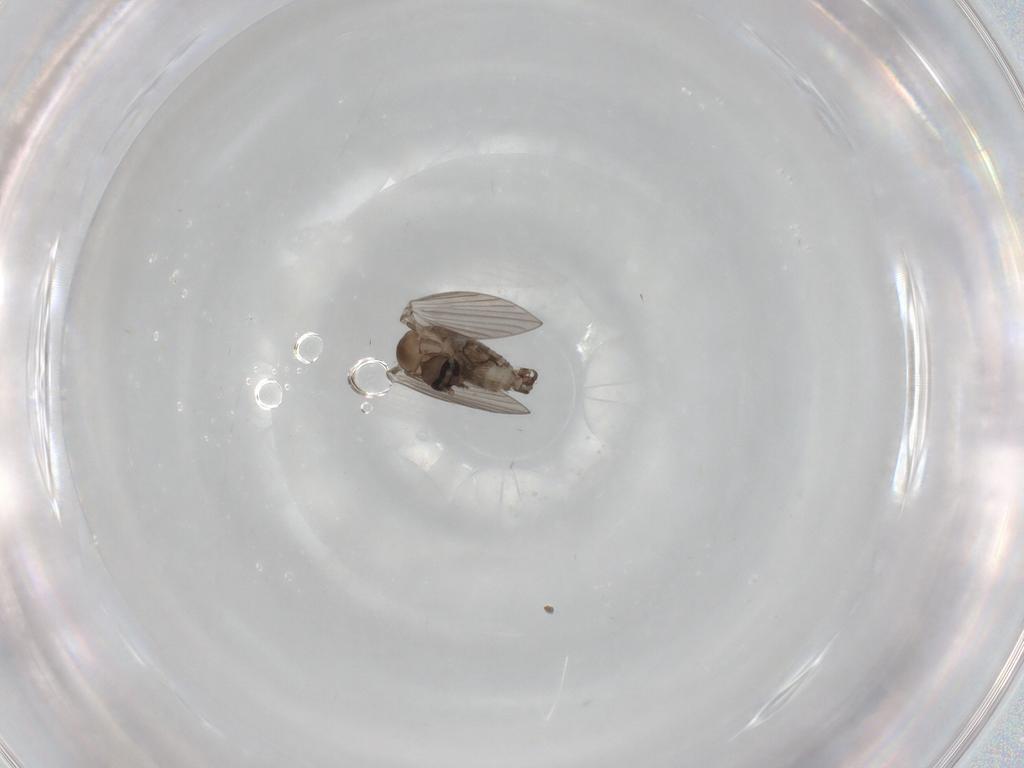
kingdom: Animalia
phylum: Arthropoda
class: Insecta
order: Diptera
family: Psychodidae
